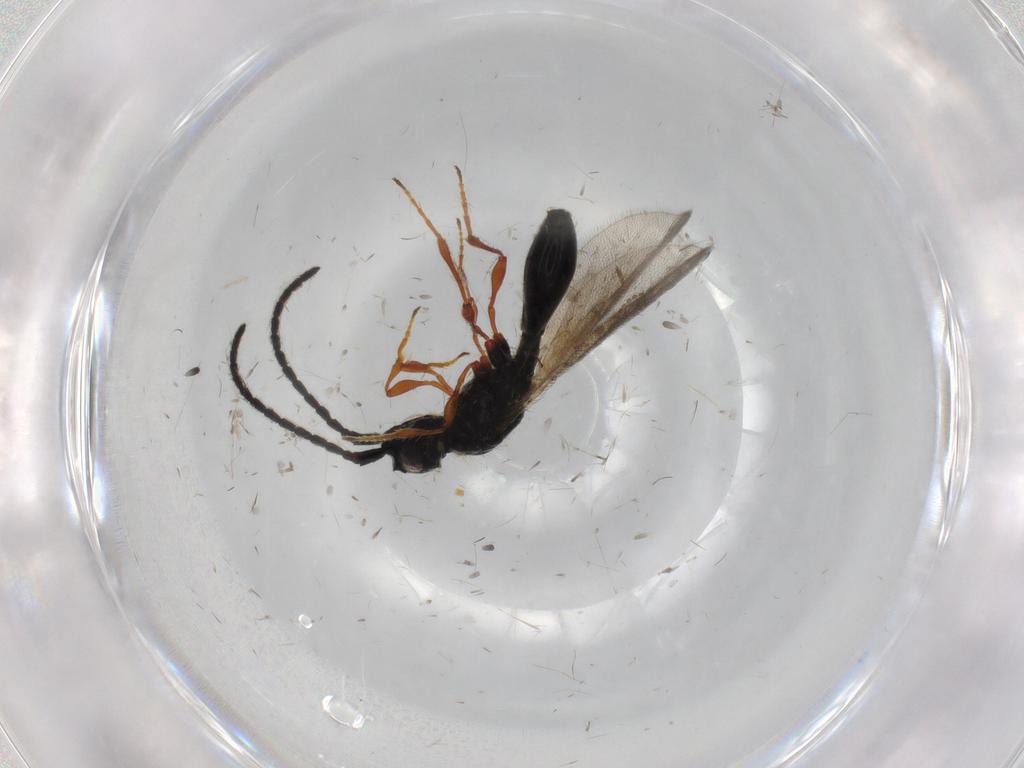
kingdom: Animalia
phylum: Arthropoda
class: Insecta
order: Hymenoptera
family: Diapriidae
